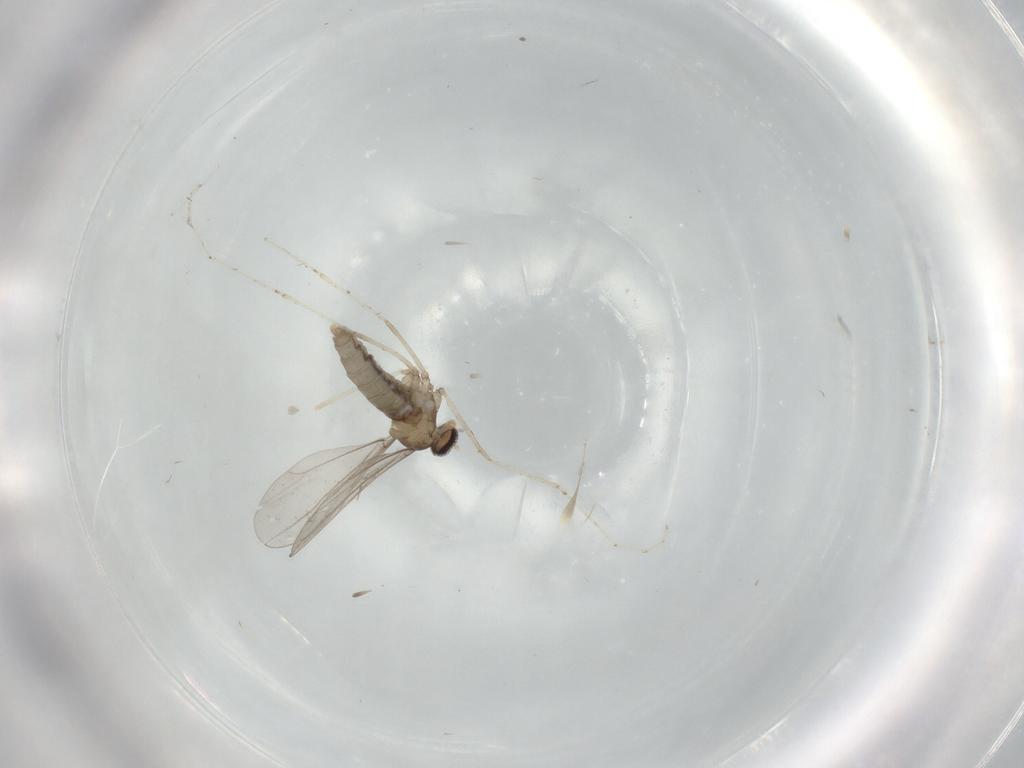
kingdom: Animalia
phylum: Arthropoda
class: Insecta
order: Diptera
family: Cecidomyiidae
